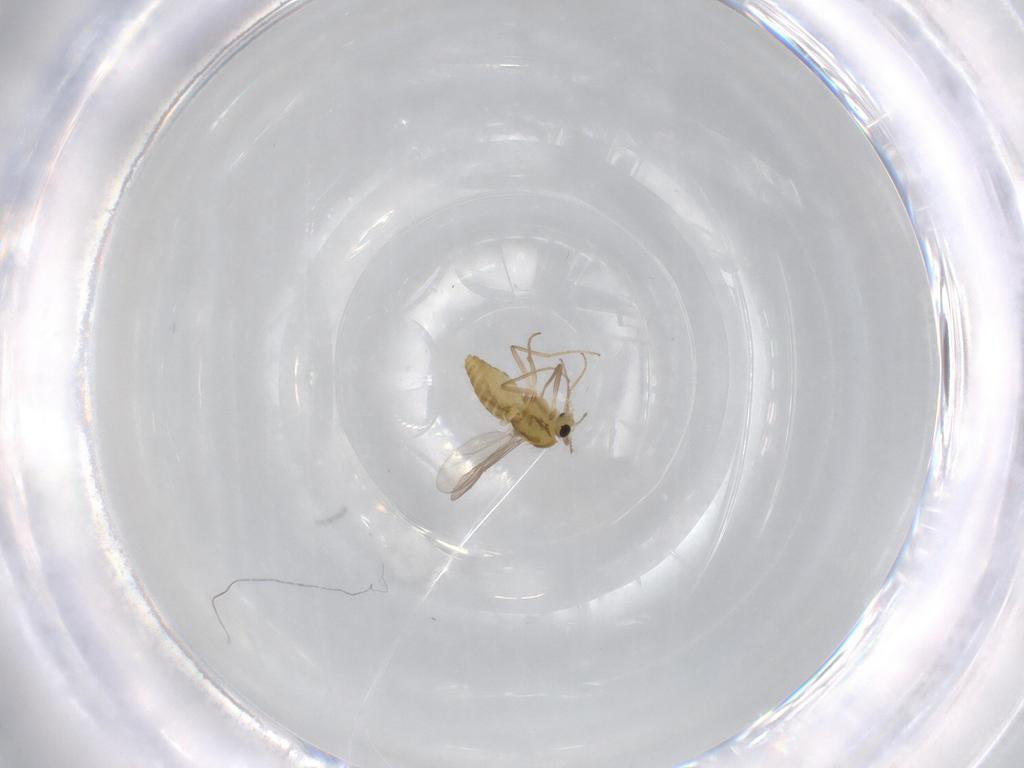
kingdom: Animalia
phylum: Arthropoda
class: Insecta
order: Diptera
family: Chironomidae
